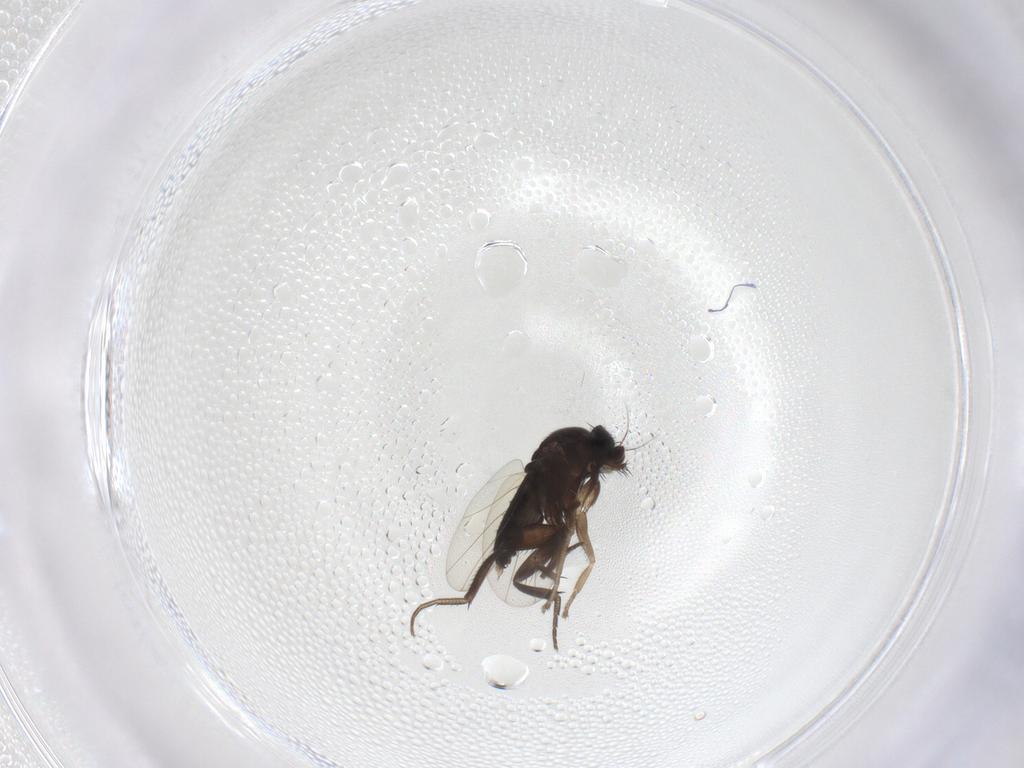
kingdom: Animalia
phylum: Arthropoda
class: Insecta
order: Diptera
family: Phoridae
